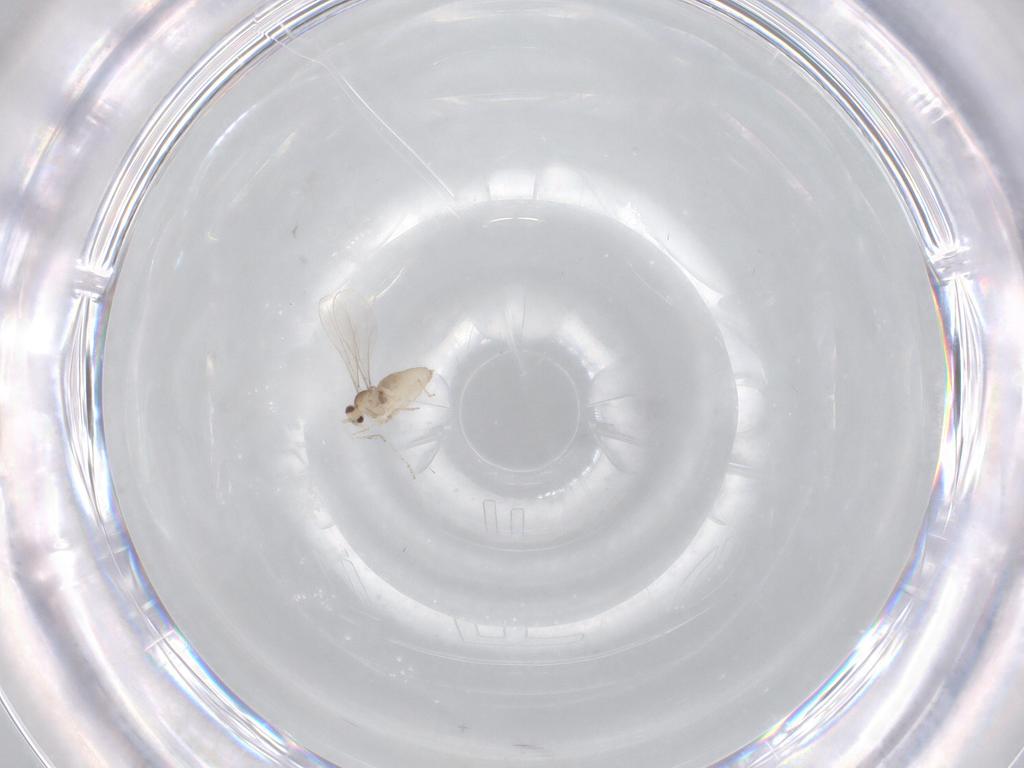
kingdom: Animalia
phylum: Arthropoda
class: Insecta
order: Diptera
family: Cecidomyiidae
